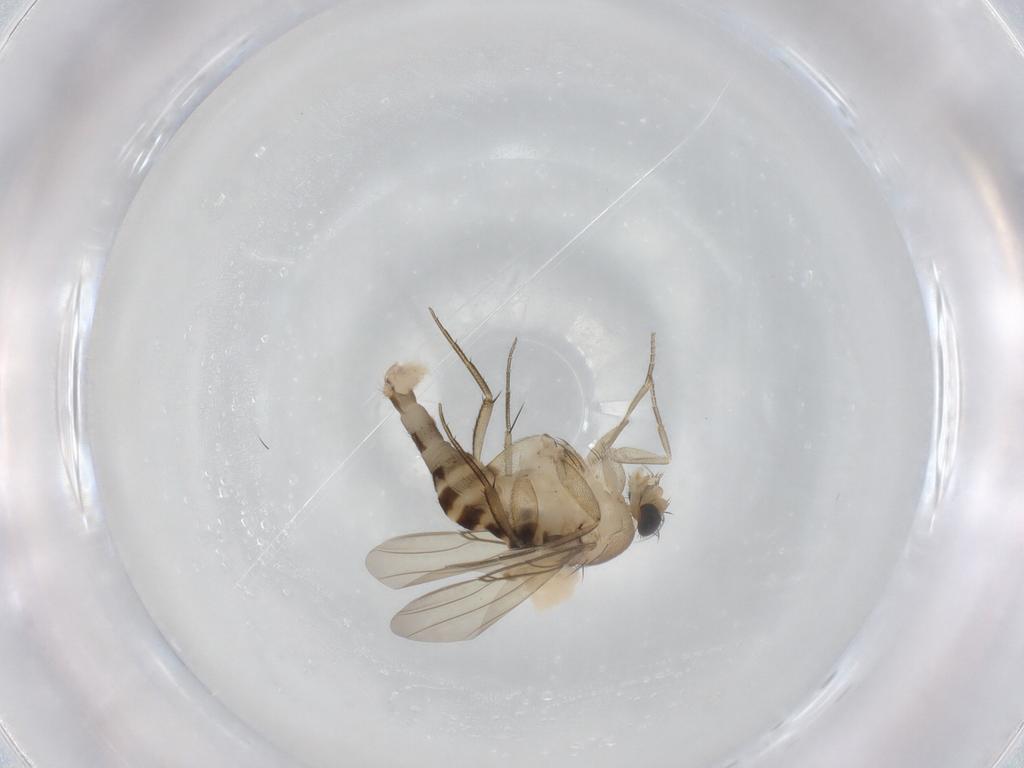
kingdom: Animalia
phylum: Arthropoda
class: Insecta
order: Diptera
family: Phoridae
